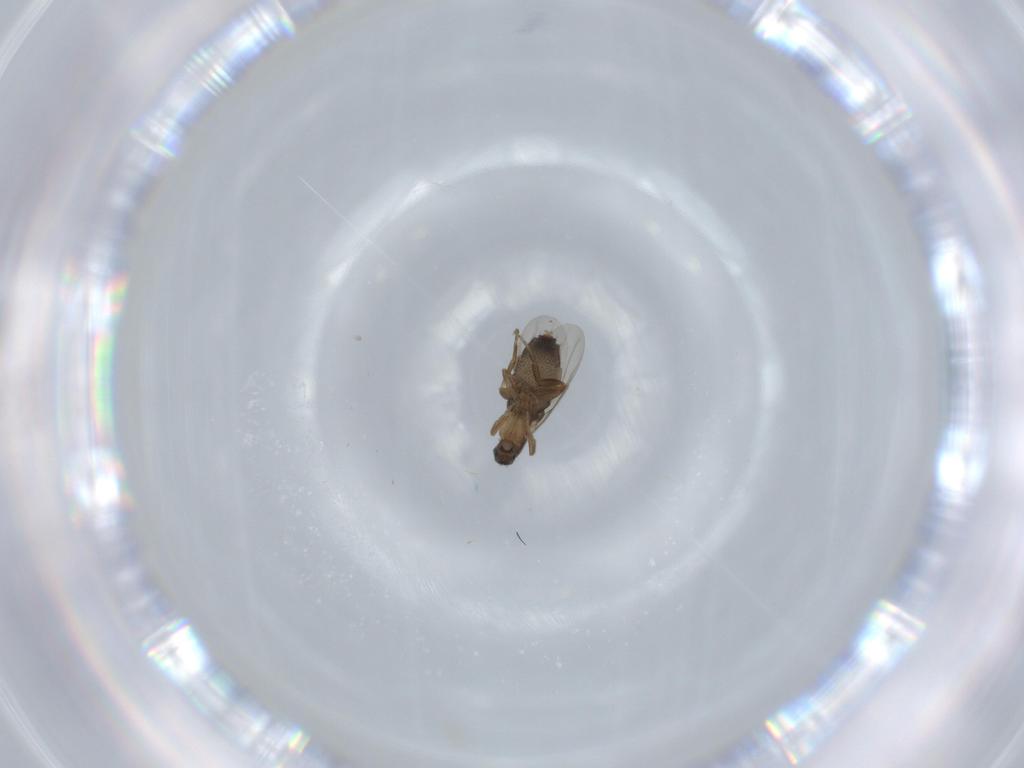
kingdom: Animalia
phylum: Arthropoda
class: Insecta
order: Diptera
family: Phoridae
